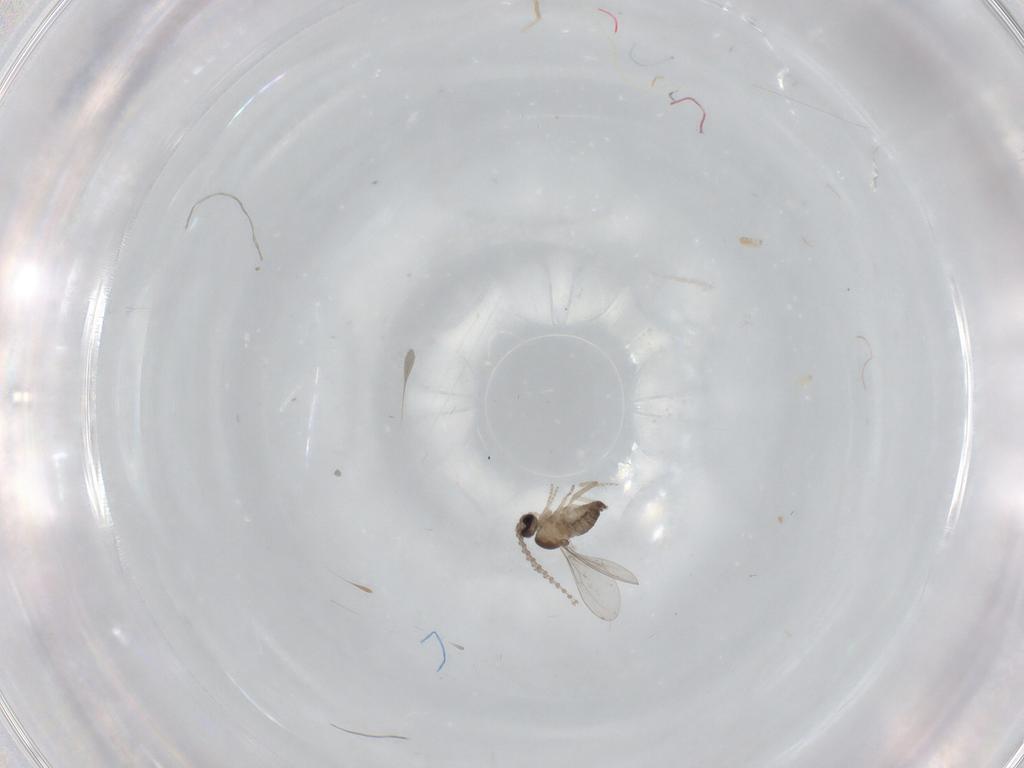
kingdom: Animalia
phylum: Arthropoda
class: Insecta
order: Diptera
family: Cecidomyiidae
